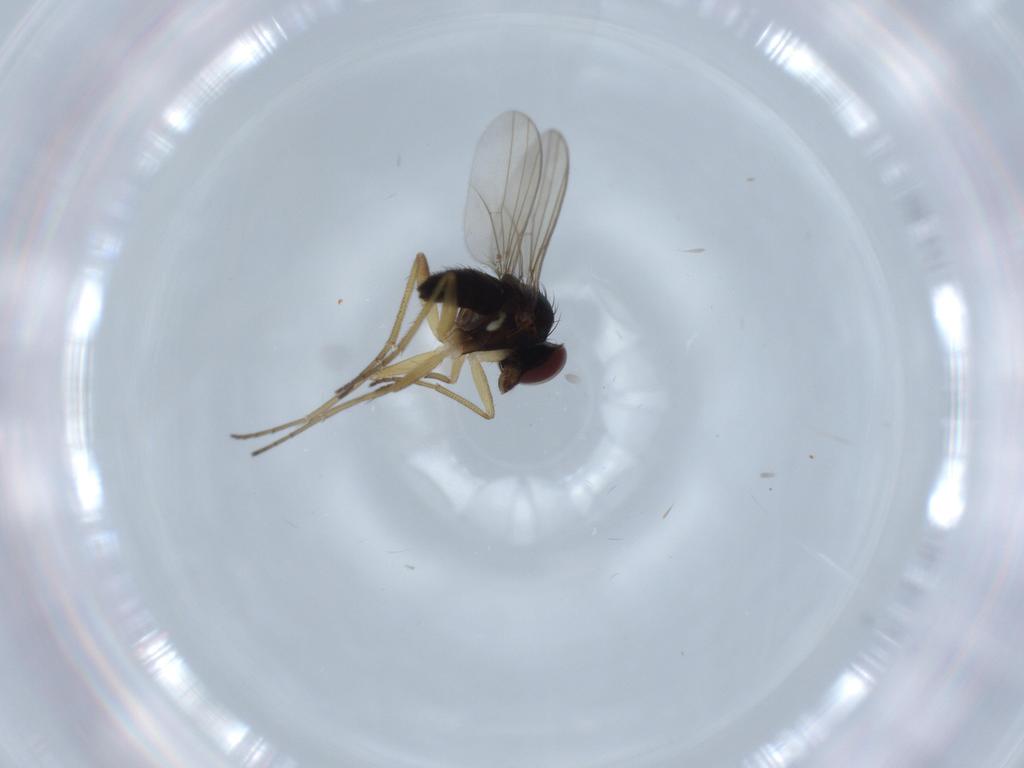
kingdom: Animalia
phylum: Arthropoda
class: Insecta
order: Diptera
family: Dolichopodidae
